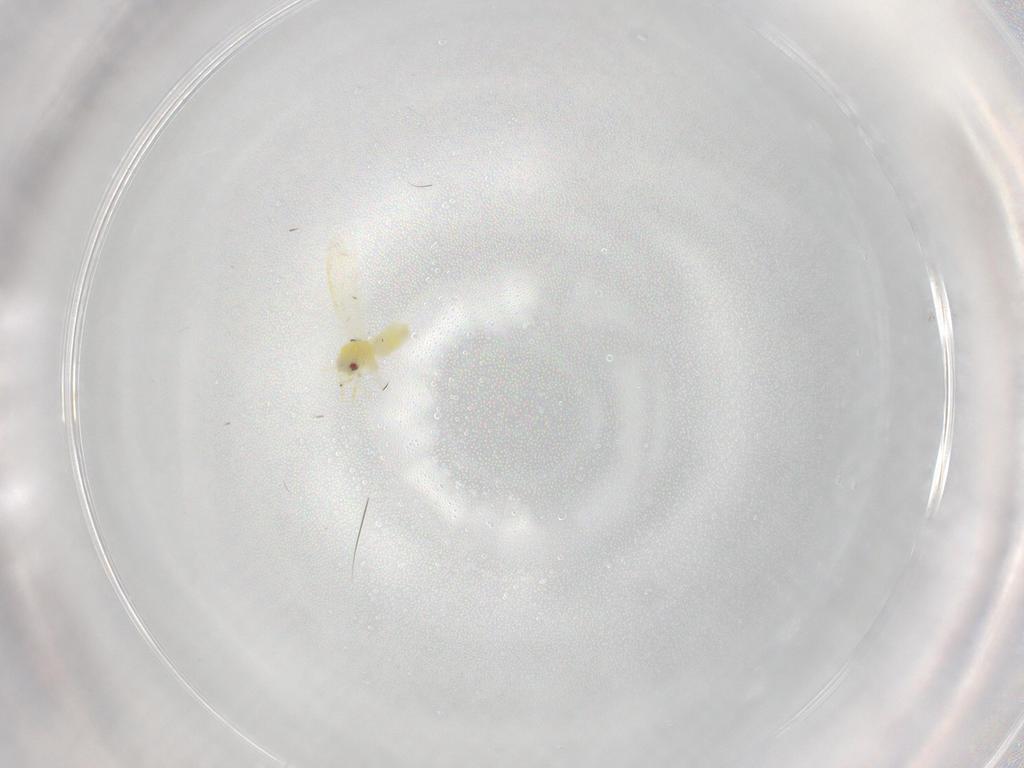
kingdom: Animalia
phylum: Arthropoda
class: Insecta
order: Hemiptera
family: Aleyrodidae
